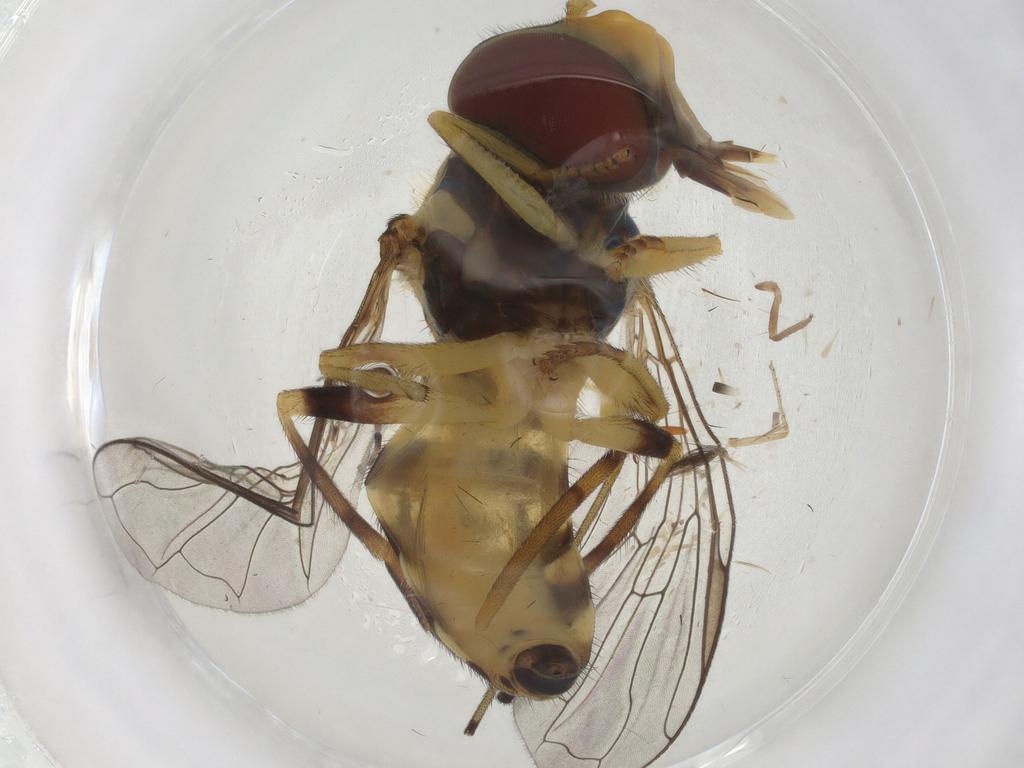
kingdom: Animalia
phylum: Arthropoda
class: Insecta
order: Diptera
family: Syrphidae
